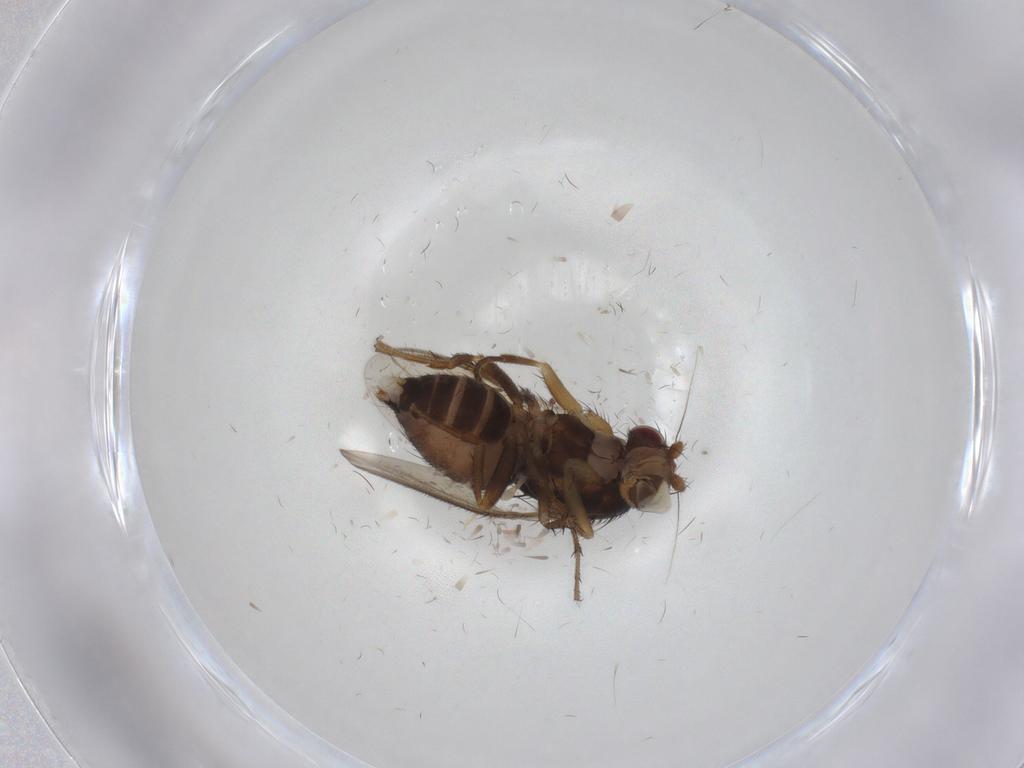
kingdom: Animalia
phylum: Arthropoda
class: Insecta
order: Diptera
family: Sphaeroceridae
